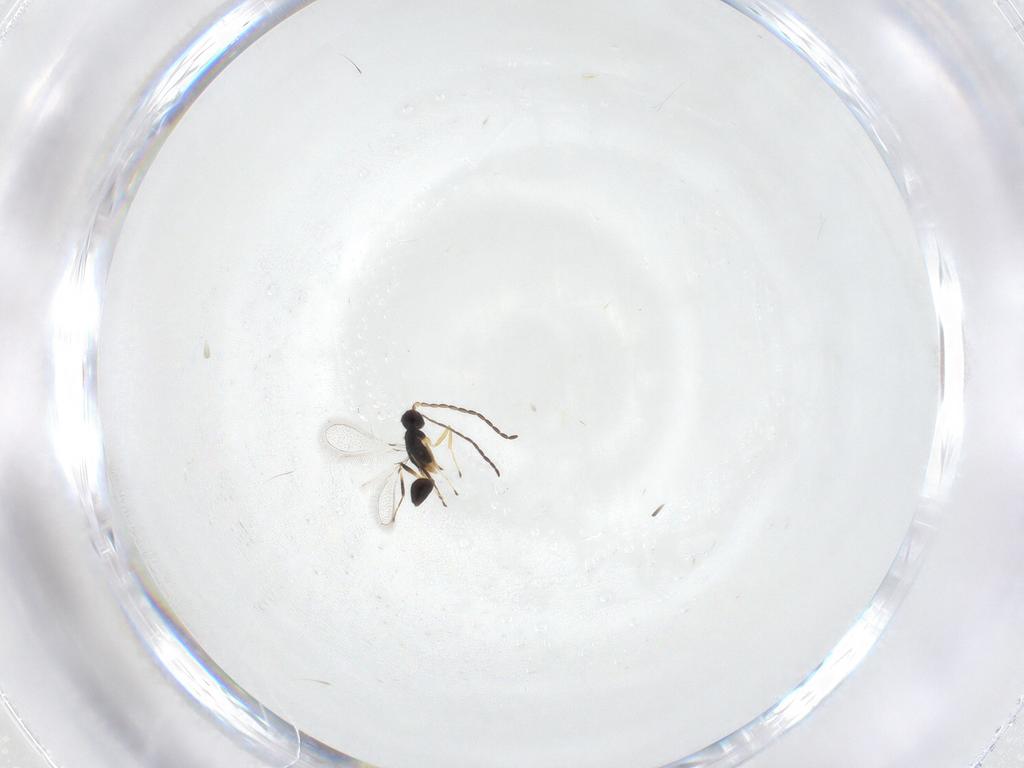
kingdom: Animalia
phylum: Arthropoda
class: Insecta
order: Hymenoptera
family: Mymaridae
